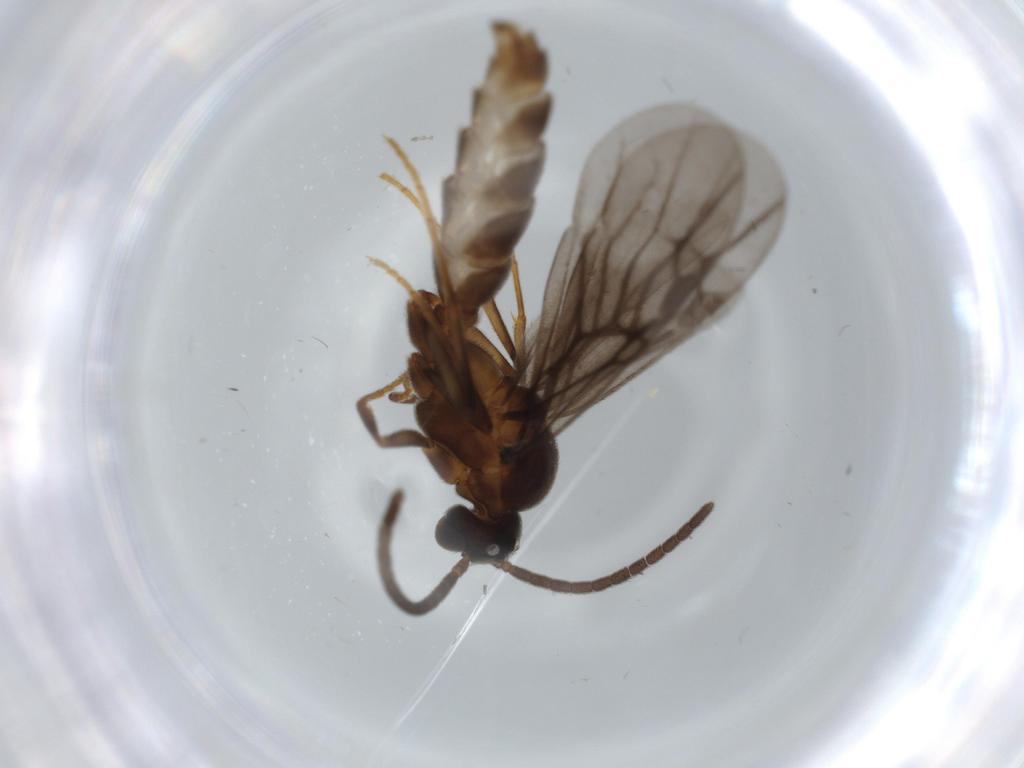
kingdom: Animalia
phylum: Arthropoda
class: Insecta
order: Hymenoptera
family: Formicidae
